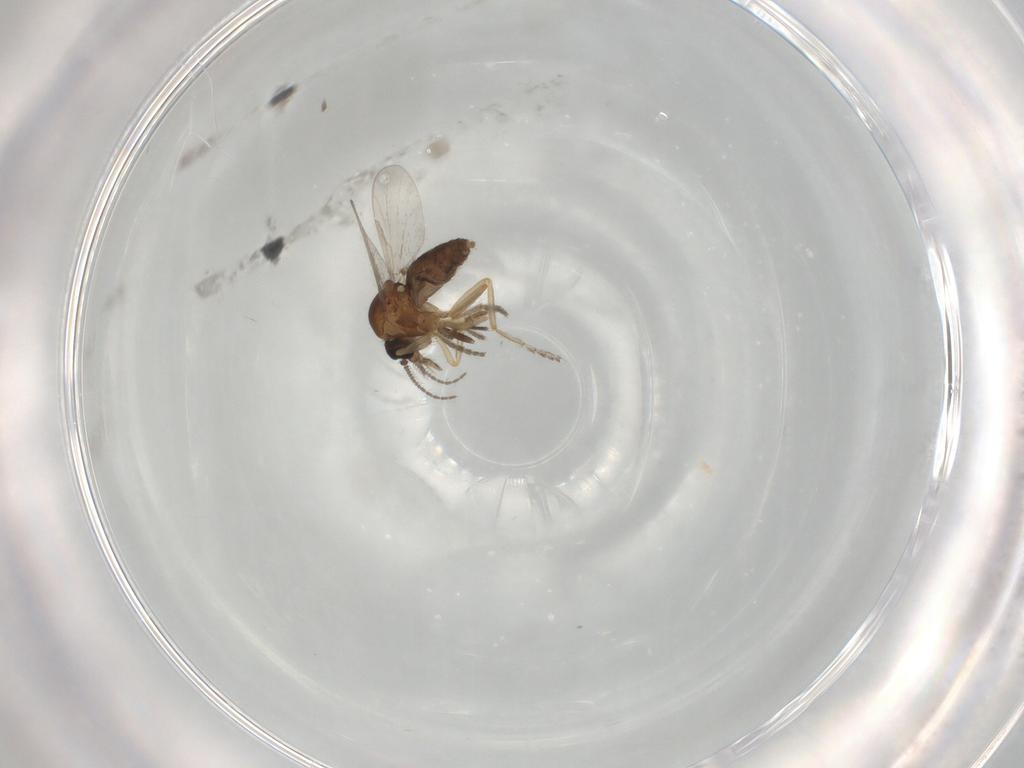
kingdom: Animalia
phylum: Arthropoda
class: Insecta
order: Diptera
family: Ceratopogonidae
